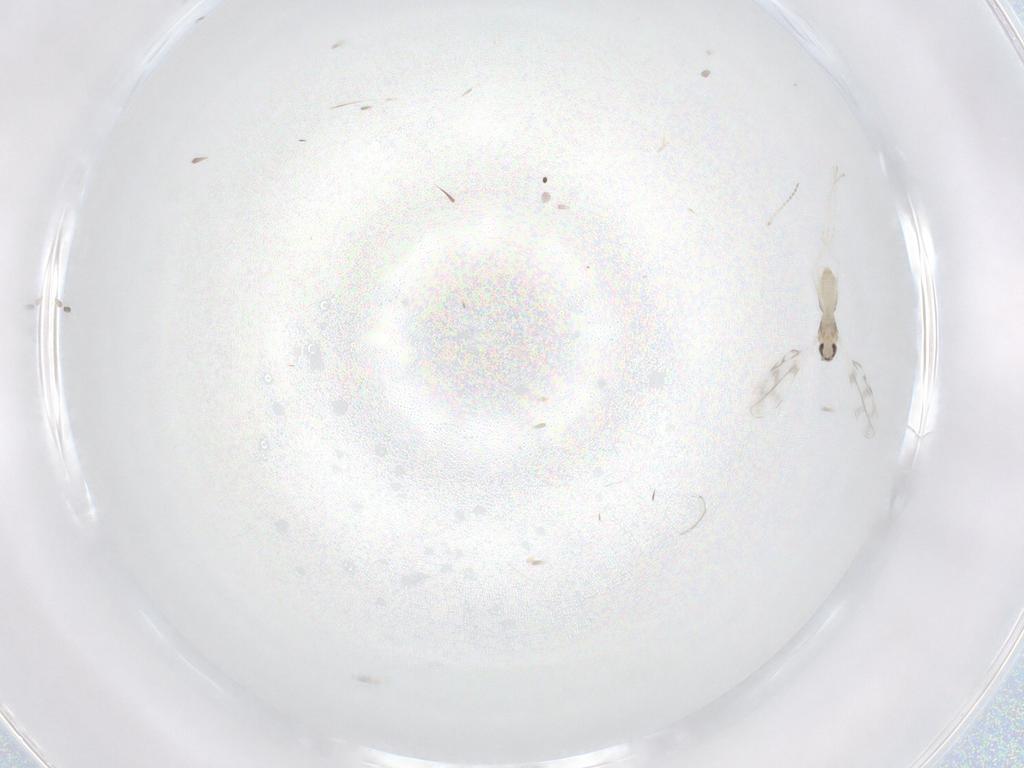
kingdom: Animalia
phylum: Arthropoda
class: Insecta
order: Diptera
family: Cecidomyiidae
